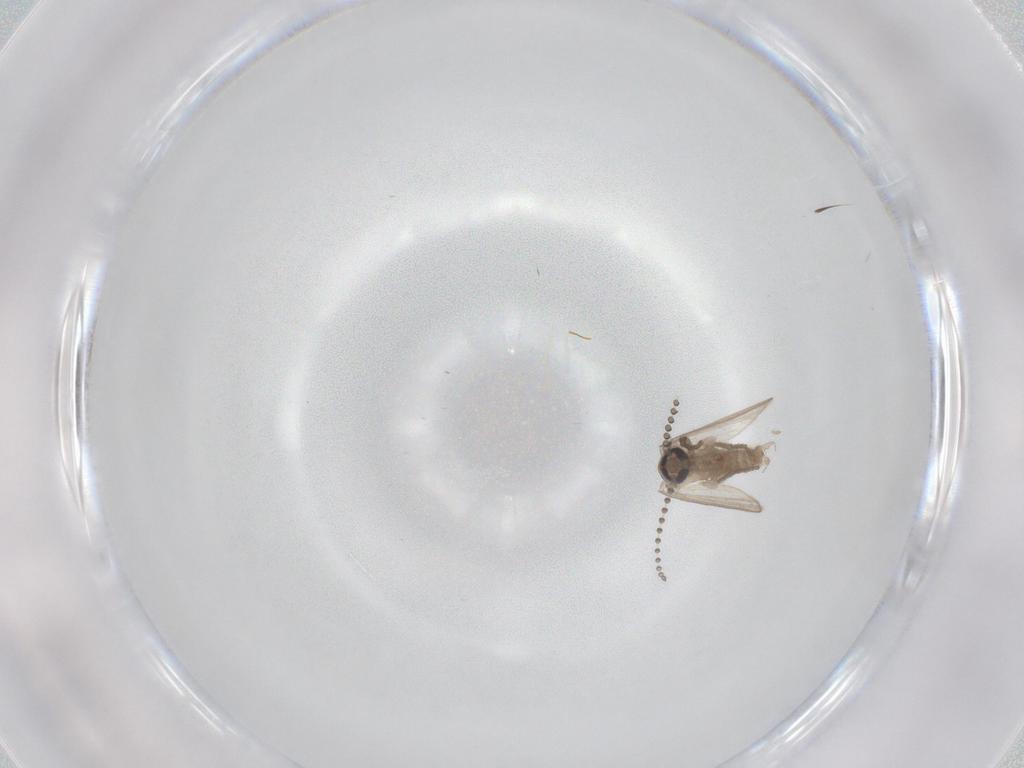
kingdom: Animalia
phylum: Arthropoda
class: Insecta
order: Diptera
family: Psychodidae
